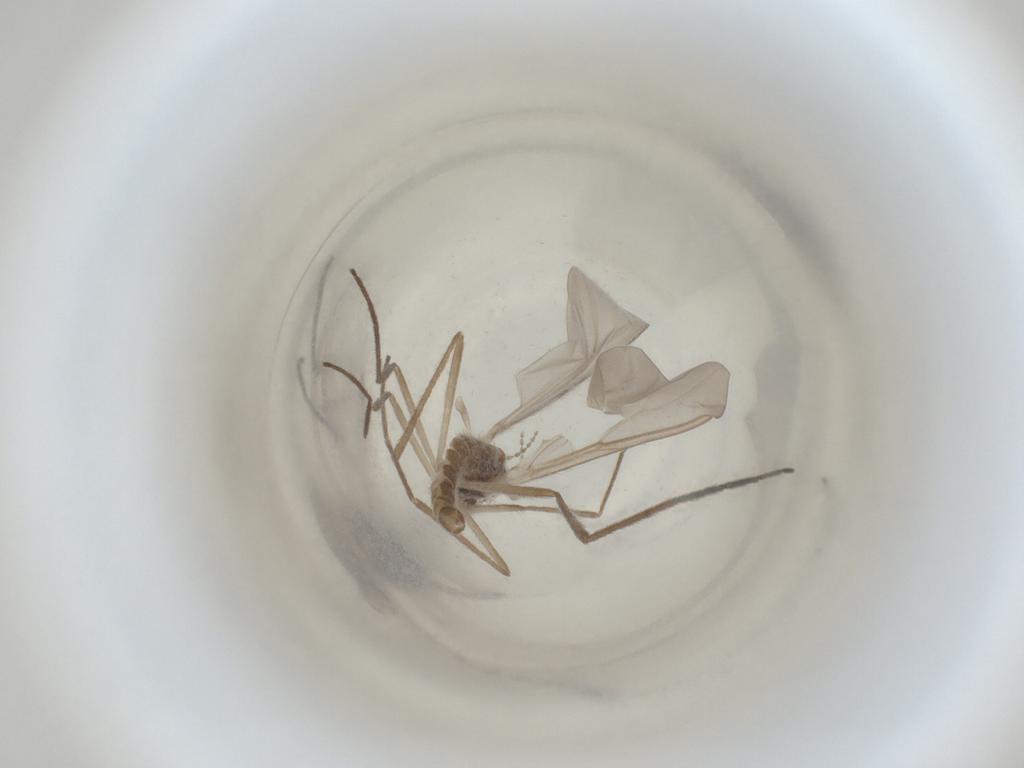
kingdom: Animalia
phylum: Arthropoda
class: Insecta
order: Diptera
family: Cecidomyiidae
